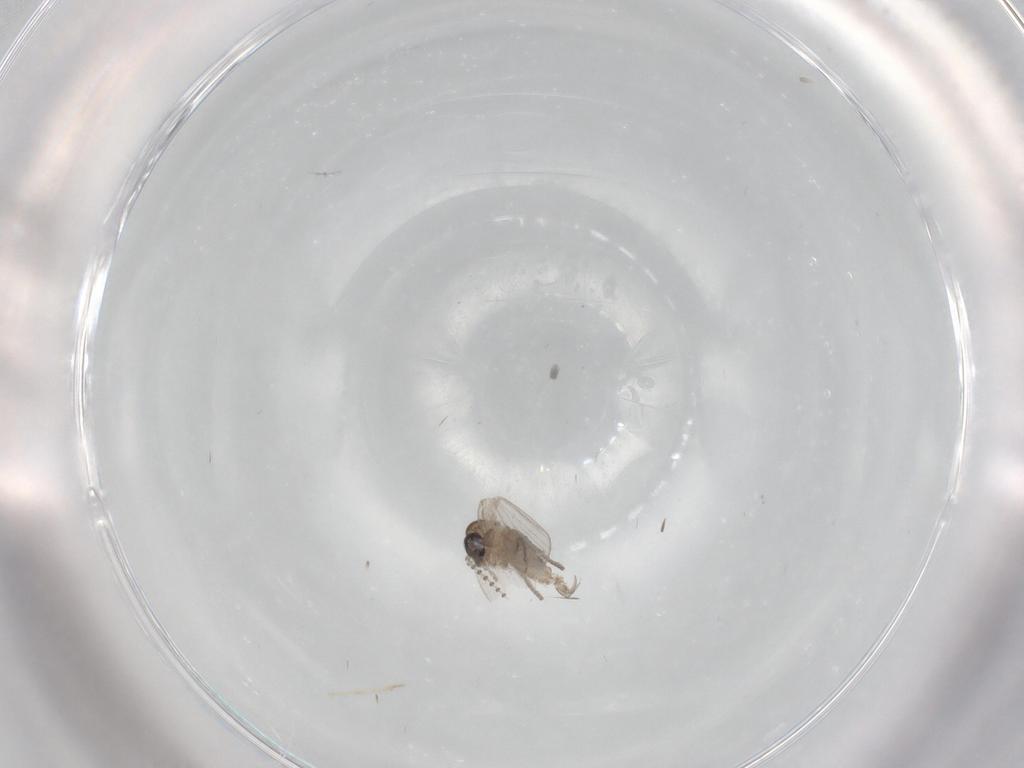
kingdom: Animalia
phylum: Arthropoda
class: Insecta
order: Diptera
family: Psychodidae
